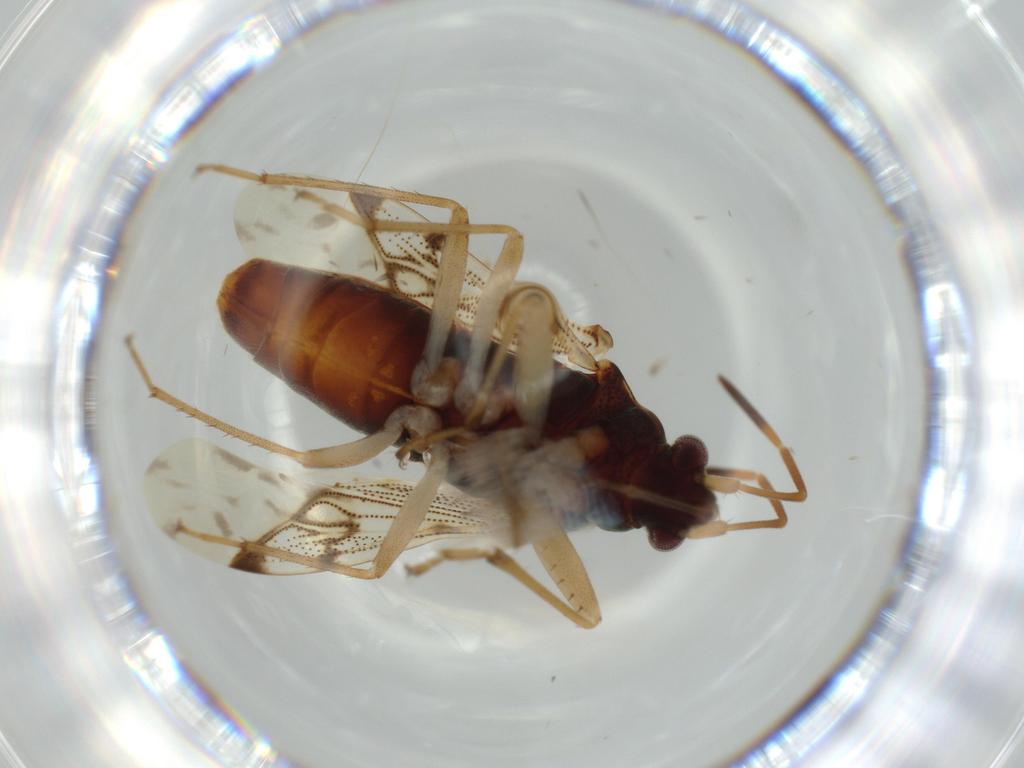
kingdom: Animalia
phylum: Arthropoda
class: Insecta
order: Hemiptera
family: Rhyparochromidae
